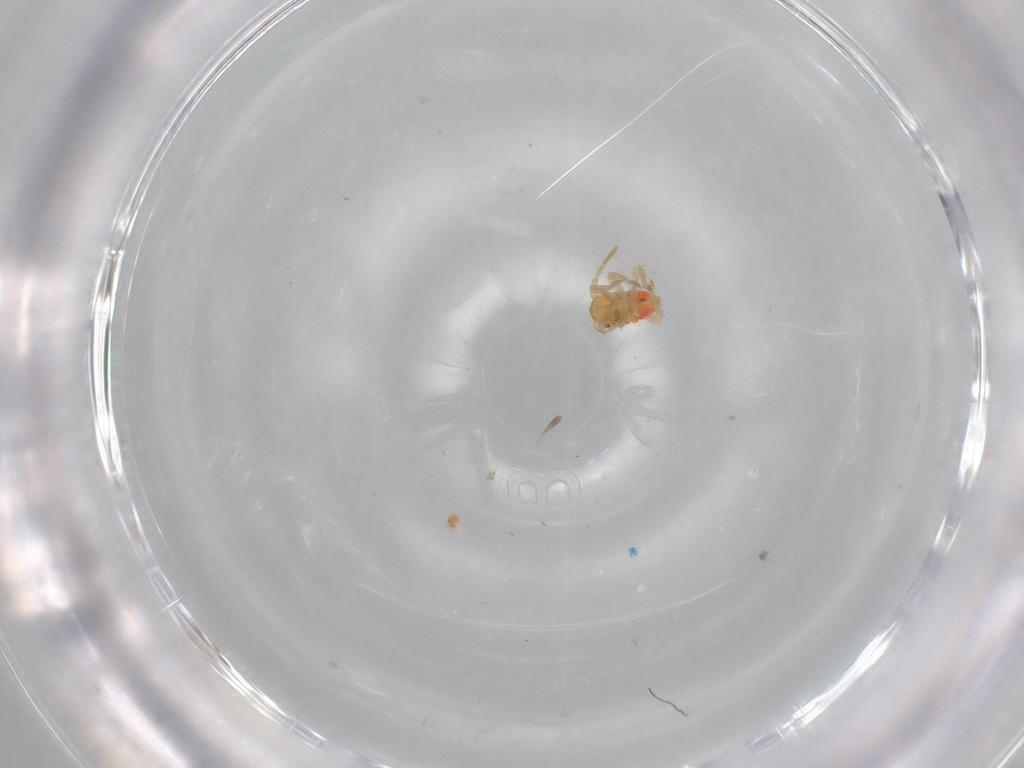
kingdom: Animalia
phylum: Arthropoda
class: Insecta
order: Hemiptera
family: Miridae
